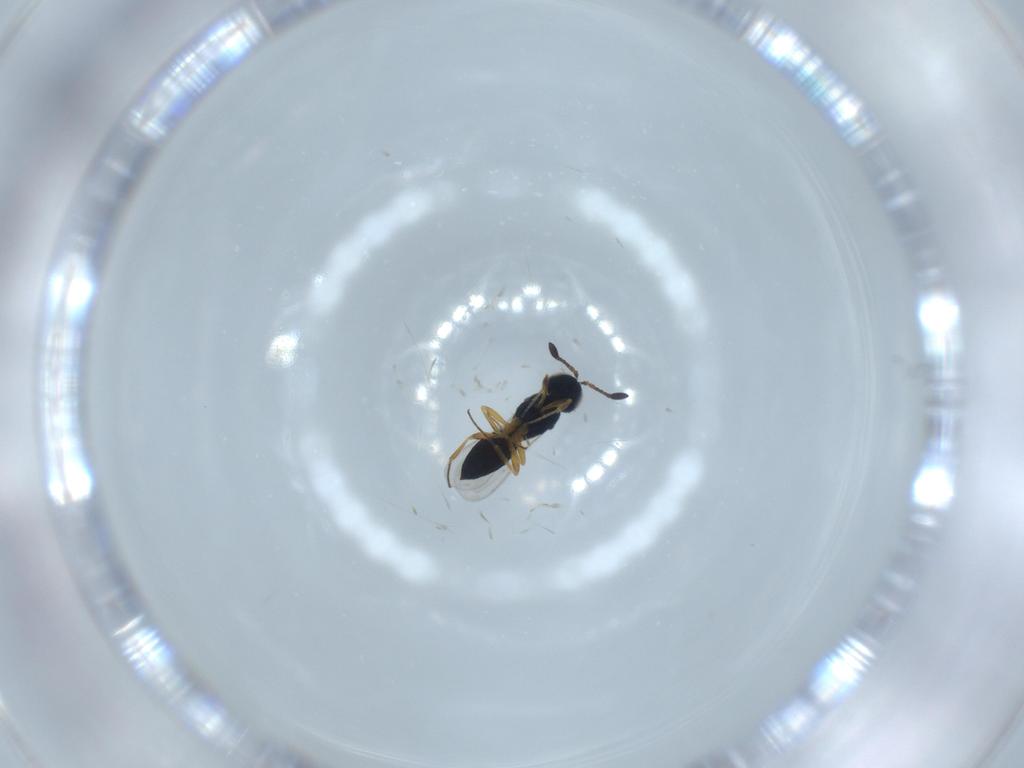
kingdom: Animalia
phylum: Arthropoda
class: Insecta
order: Hymenoptera
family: Scelionidae
